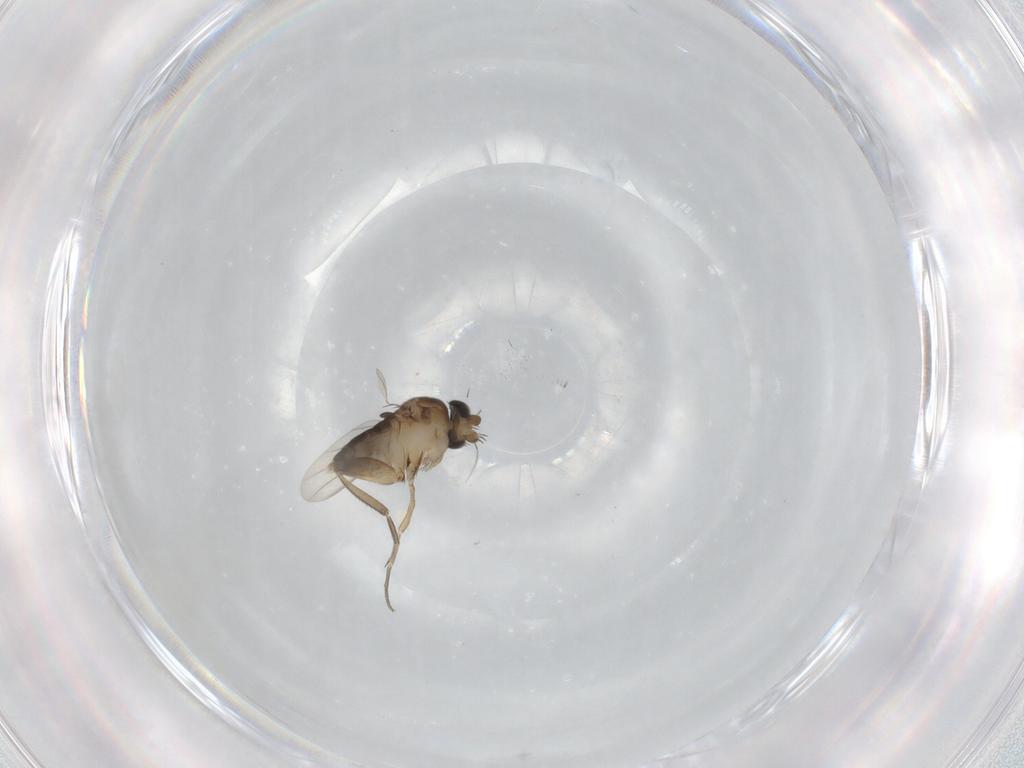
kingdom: Animalia
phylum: Arthropoda
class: Insecta
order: Diptera
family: Phoridae
